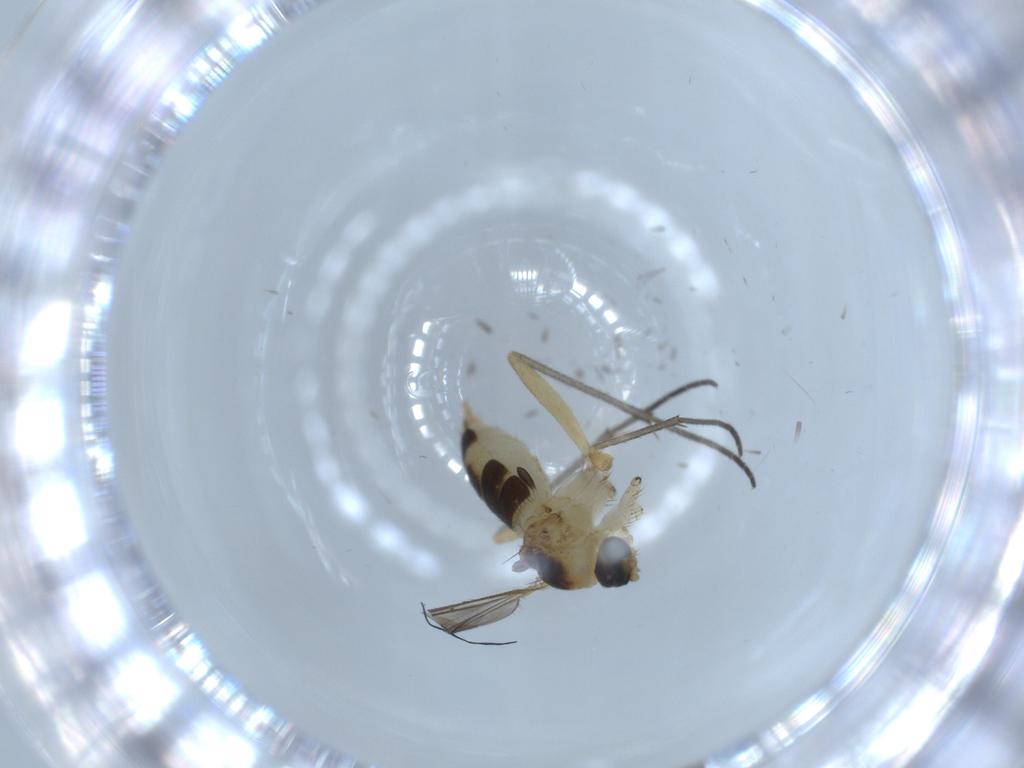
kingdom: Animalia
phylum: Arthropoda
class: Insecta
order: Diptera
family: Sciaridae
